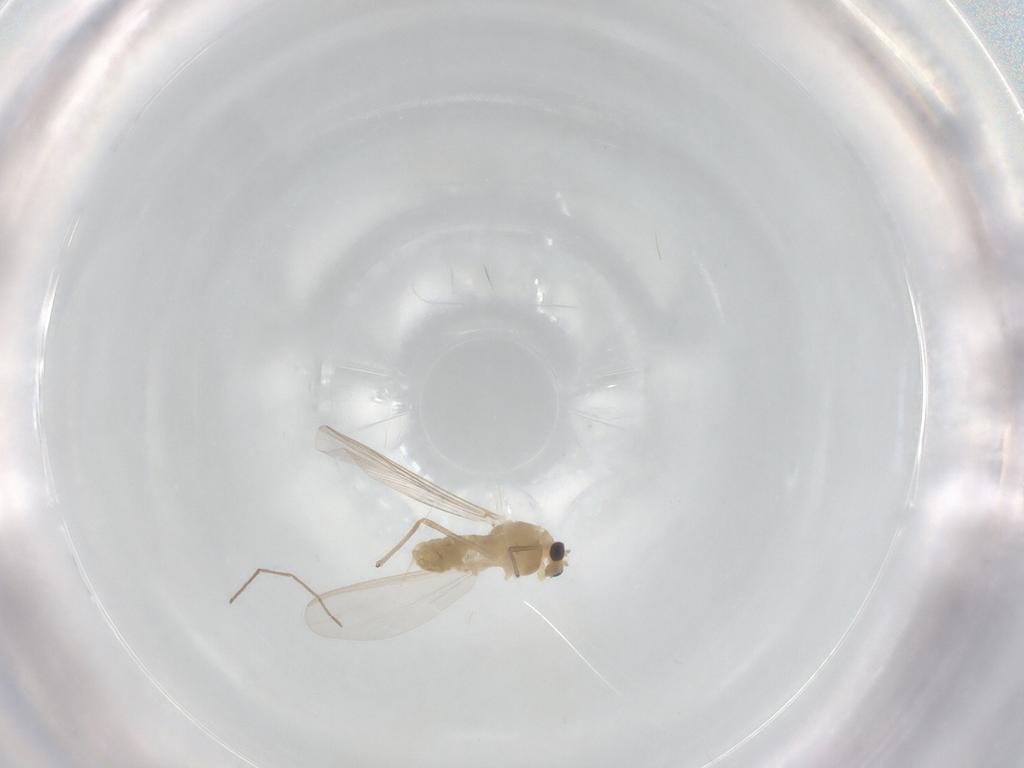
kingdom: Animalia
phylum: Arthropoda
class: Insecta
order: Diptera
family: Chironomidae
